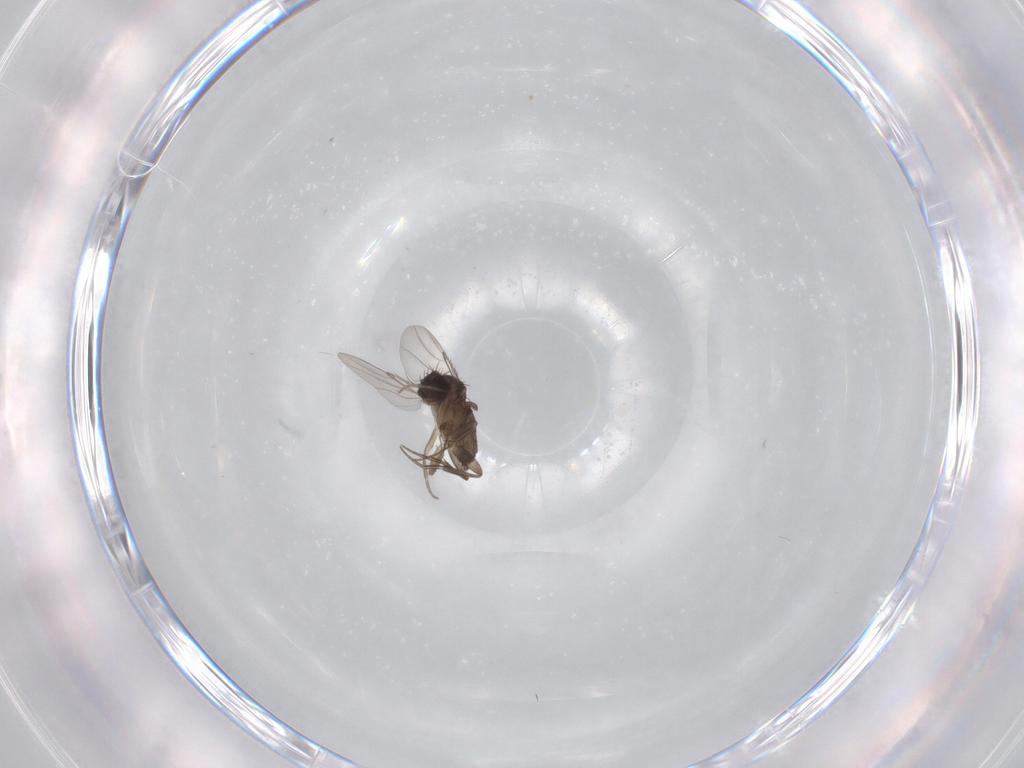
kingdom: Animalia
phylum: Arthropoda
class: Insecta
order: Diptera
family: Phoridae
